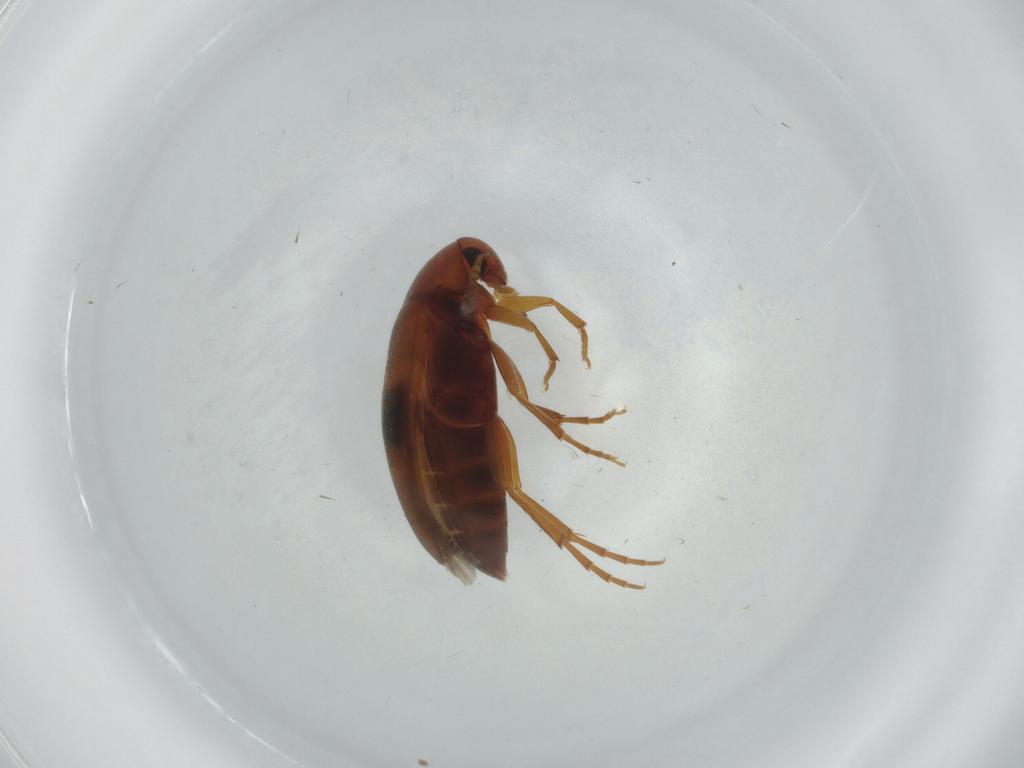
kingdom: Animalia
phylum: Arthropoda
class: Insecta
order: Coleoptera
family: Scraptiidae
